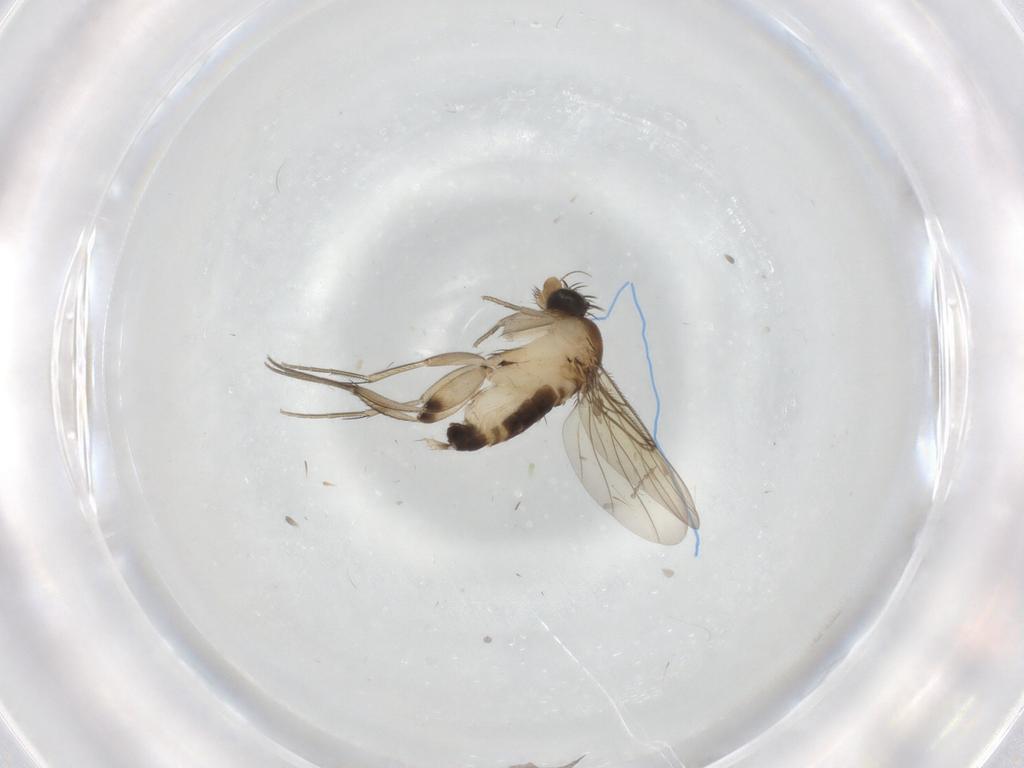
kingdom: Animalia
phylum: Arthropoda
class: Insecta
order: Diptera
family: Phoridae
